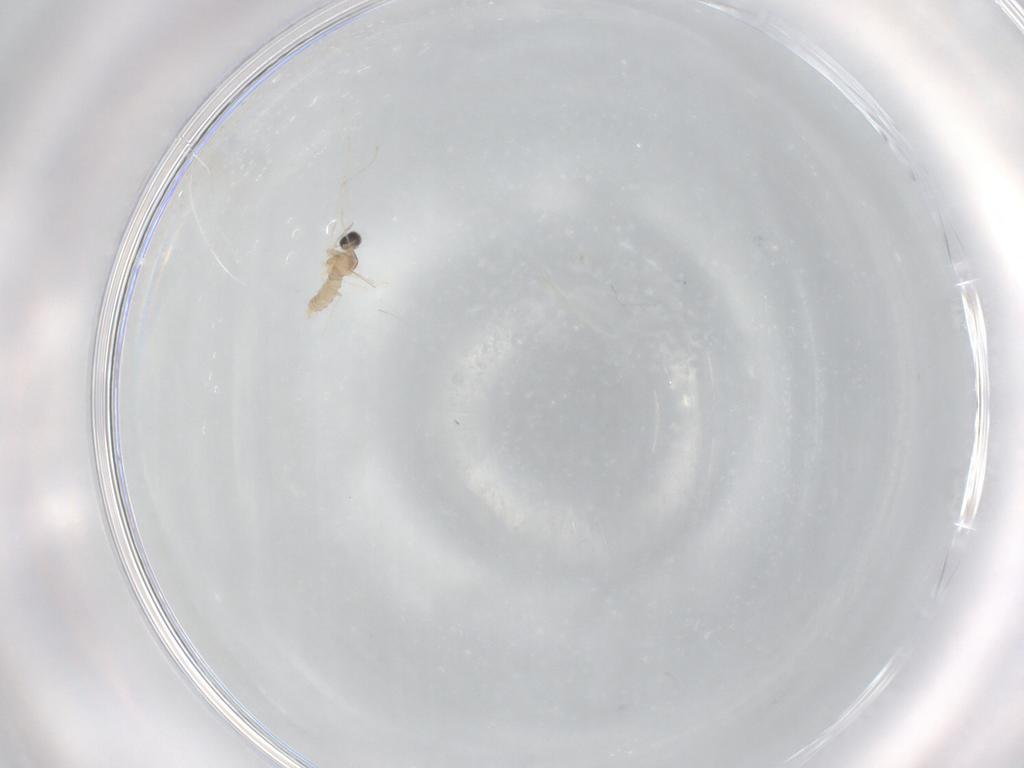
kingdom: Animalia
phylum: Arthropoda
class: Insecta
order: Diptera
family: Cecidomyiidae
